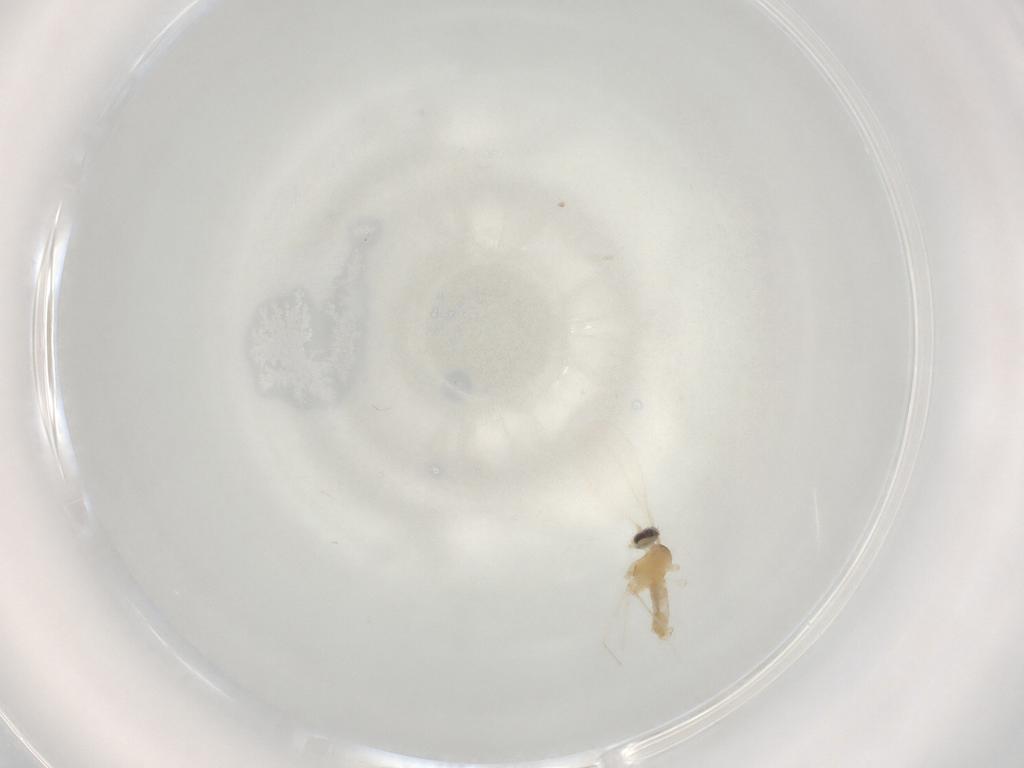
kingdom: Animalia
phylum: Arthropoda
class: Insecta
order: Diptera
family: Cecidomyiidae
